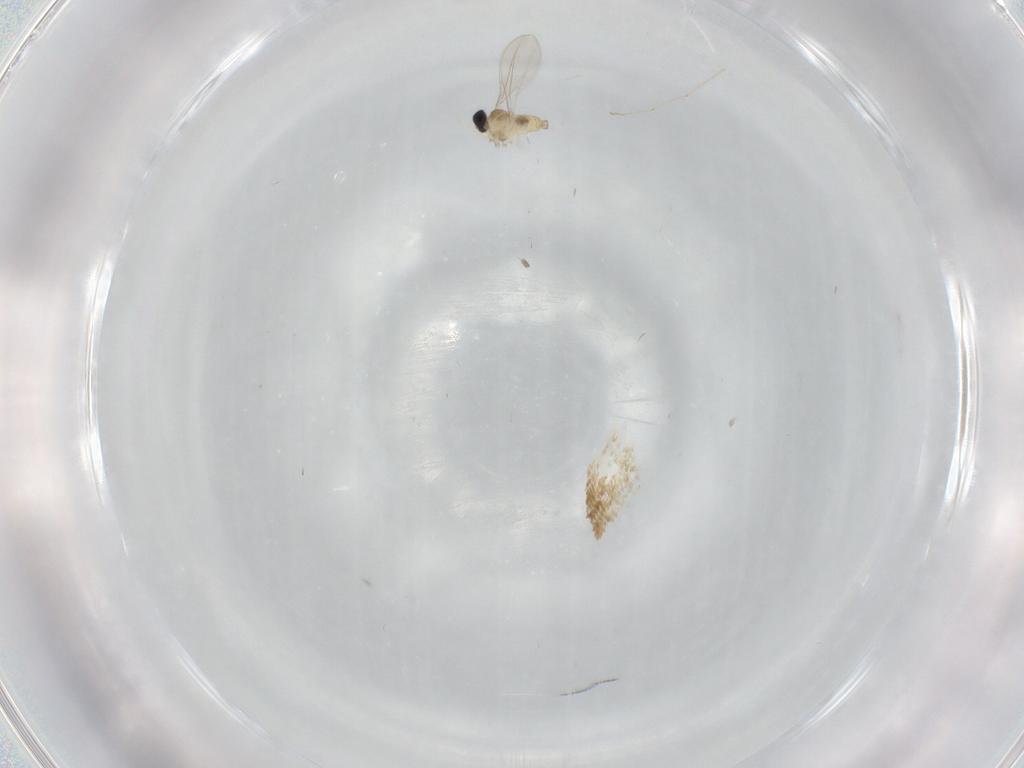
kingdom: Animalia
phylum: Arthropoda
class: Insecta
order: Diptera
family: Cecidomyiidae
